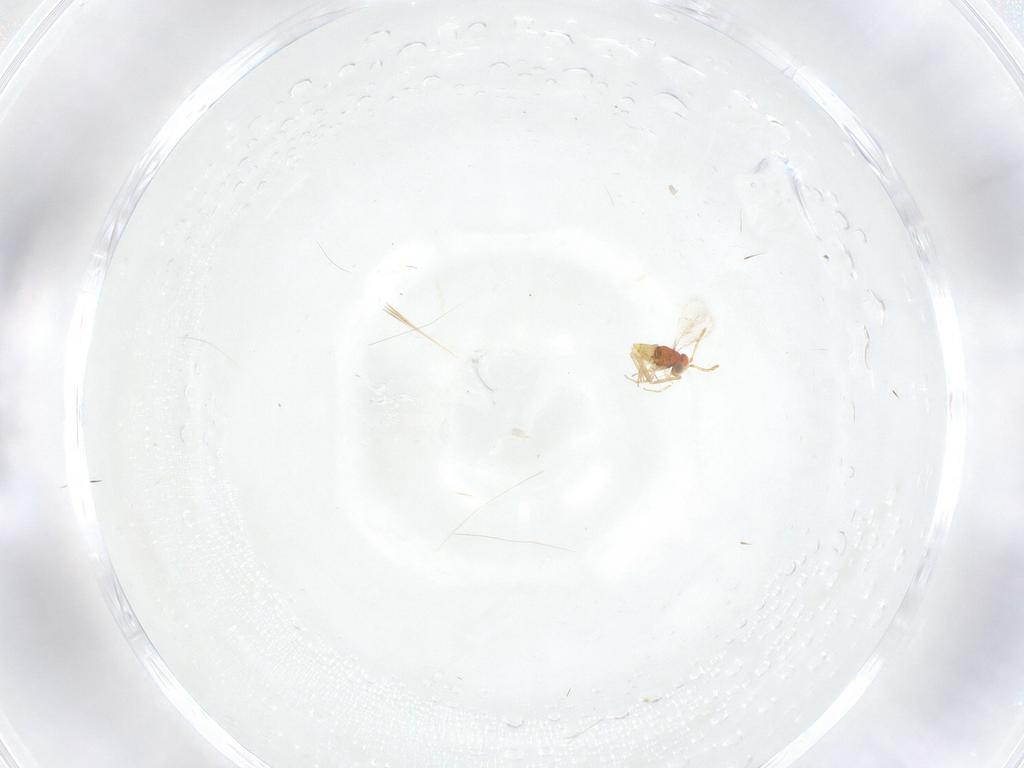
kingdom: Animalia
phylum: Arthropoda
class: Insecta
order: Hymenoptera
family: Aphelinidae
